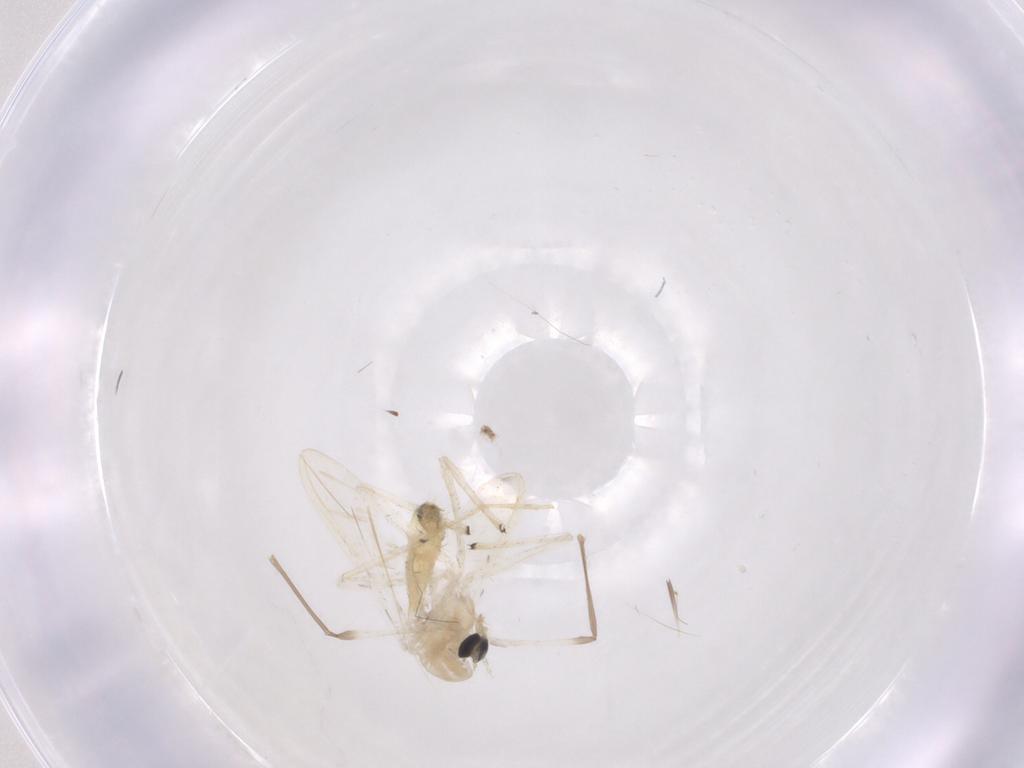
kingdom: Animalia
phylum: Arthropoda
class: Insecta
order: Diptera
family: Chironomidae
